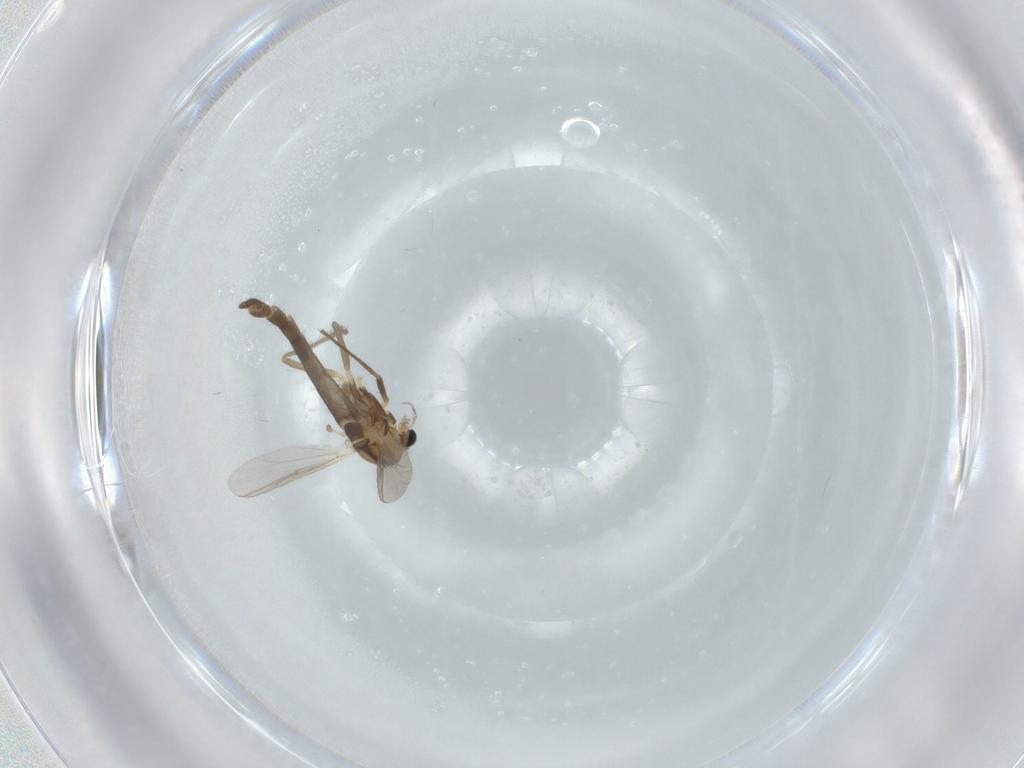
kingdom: Animalia
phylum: Arthropoda
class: Insecta
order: Diptera
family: Chironomidae
